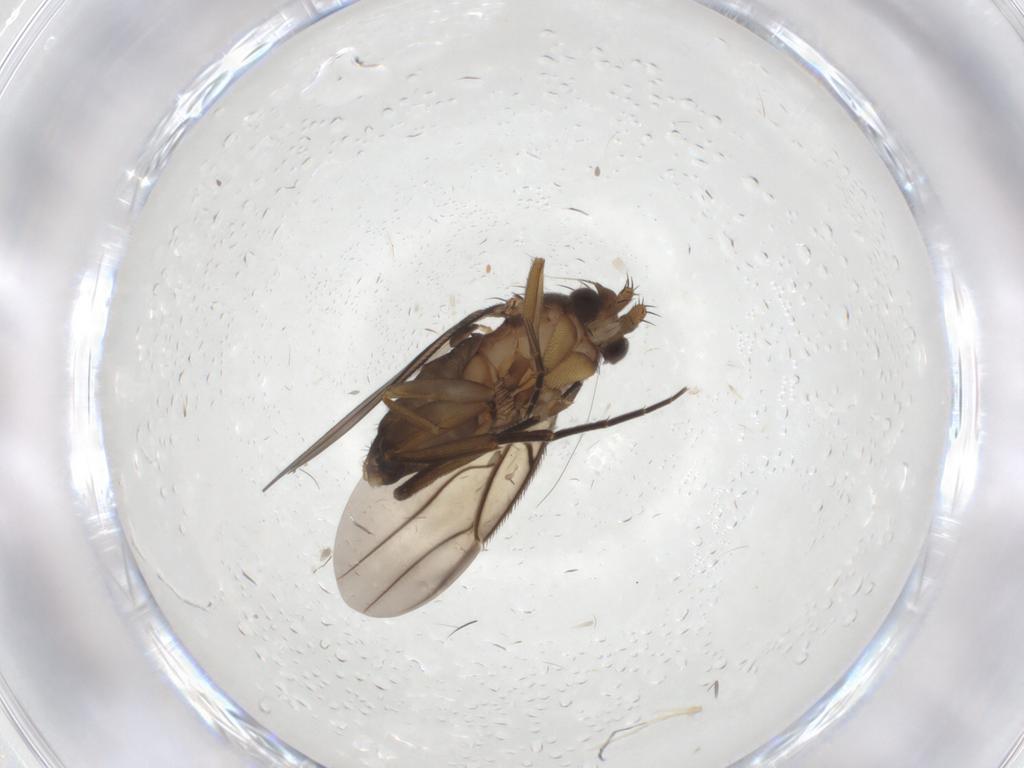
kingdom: Animalia
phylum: Arthropoda
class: Insecta
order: Diptera
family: Phoridae
